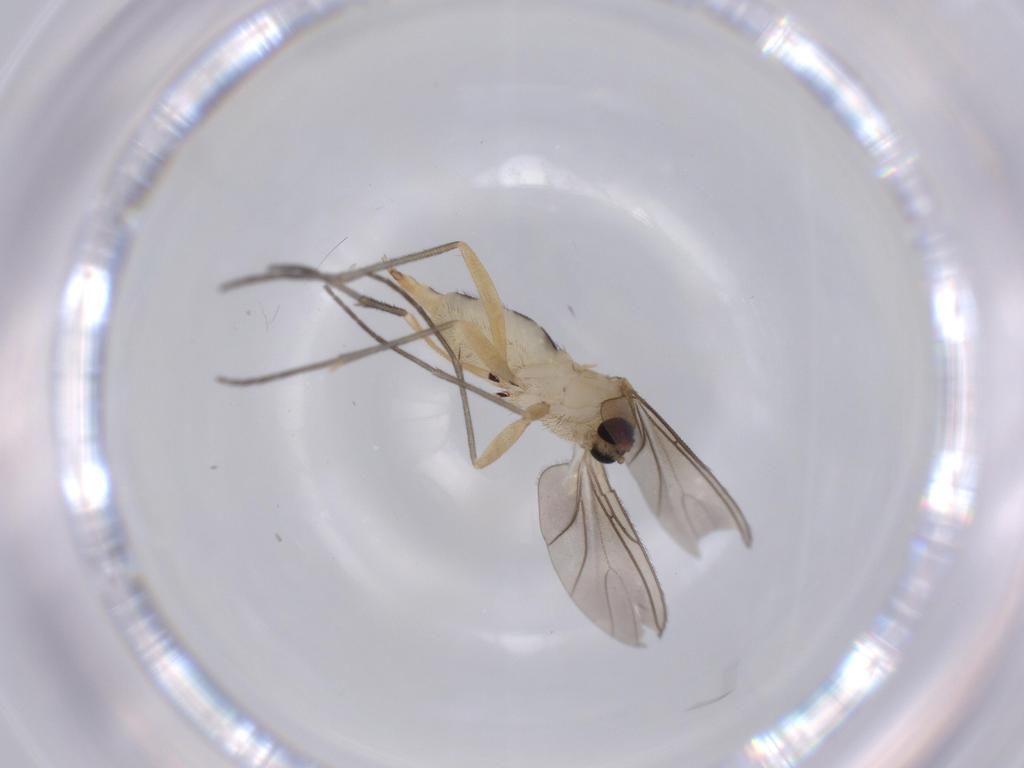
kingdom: Animalia
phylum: Arthropoda
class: Insecta
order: Diptera
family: Sciaridae
